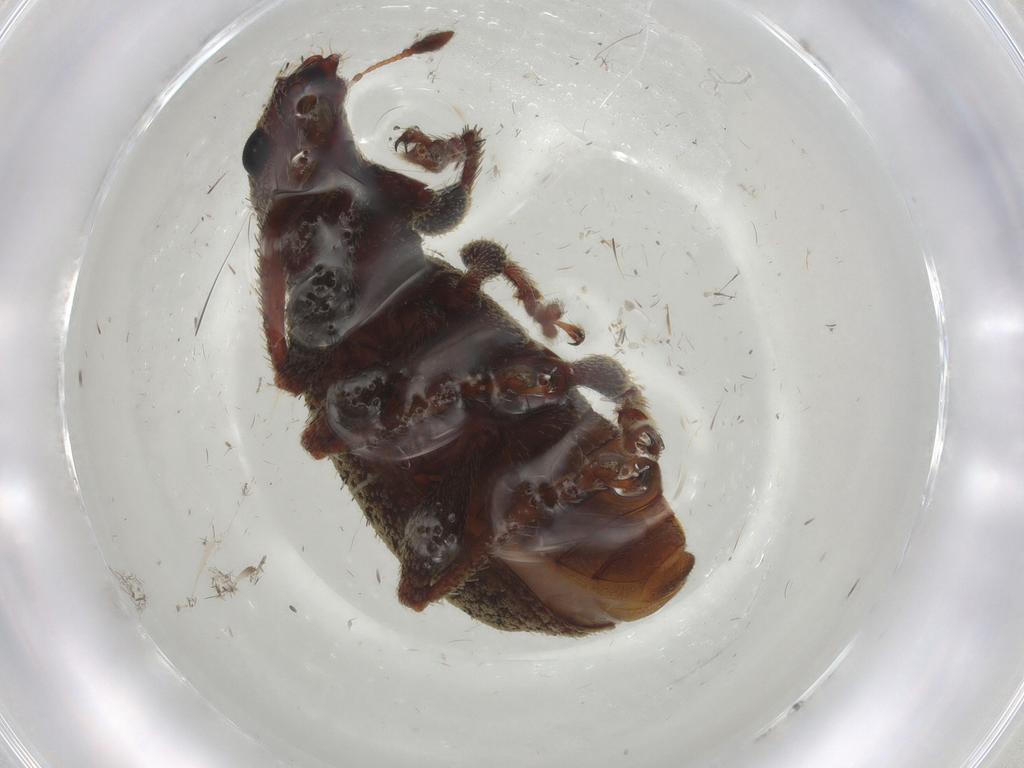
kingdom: Animalia
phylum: Arthropoda
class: Insecta
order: Coleoptera
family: Curculionidae
